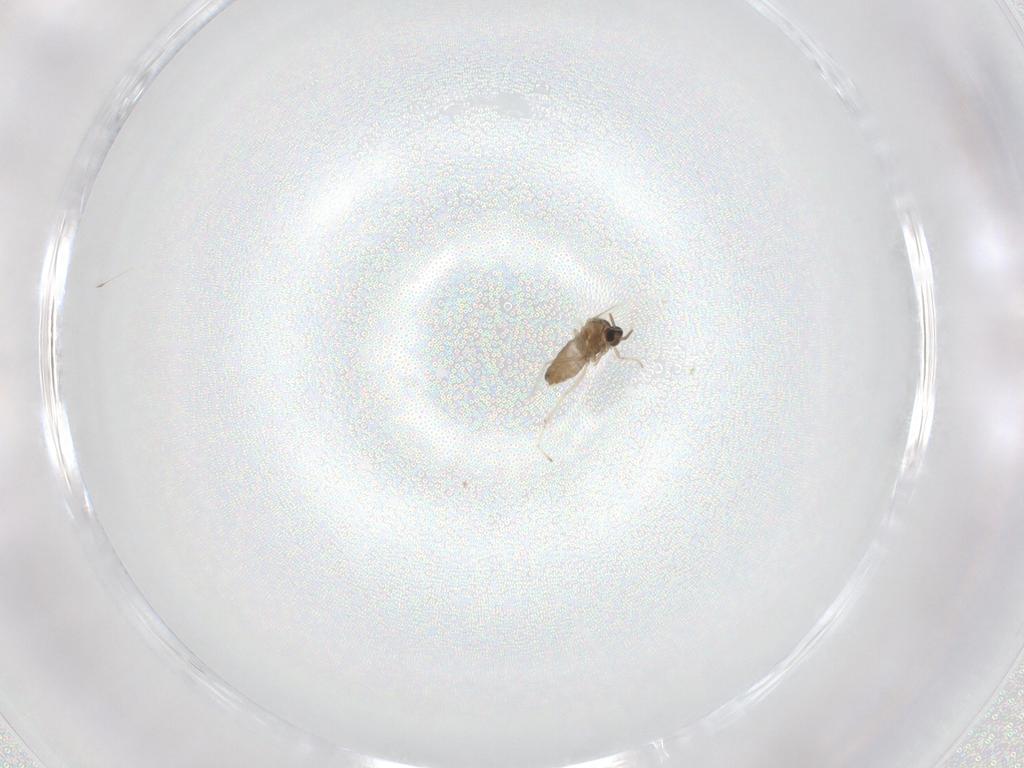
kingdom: Animalia
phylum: Arthropoda
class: Insecta
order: Diptera
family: Cecidomyiidae
